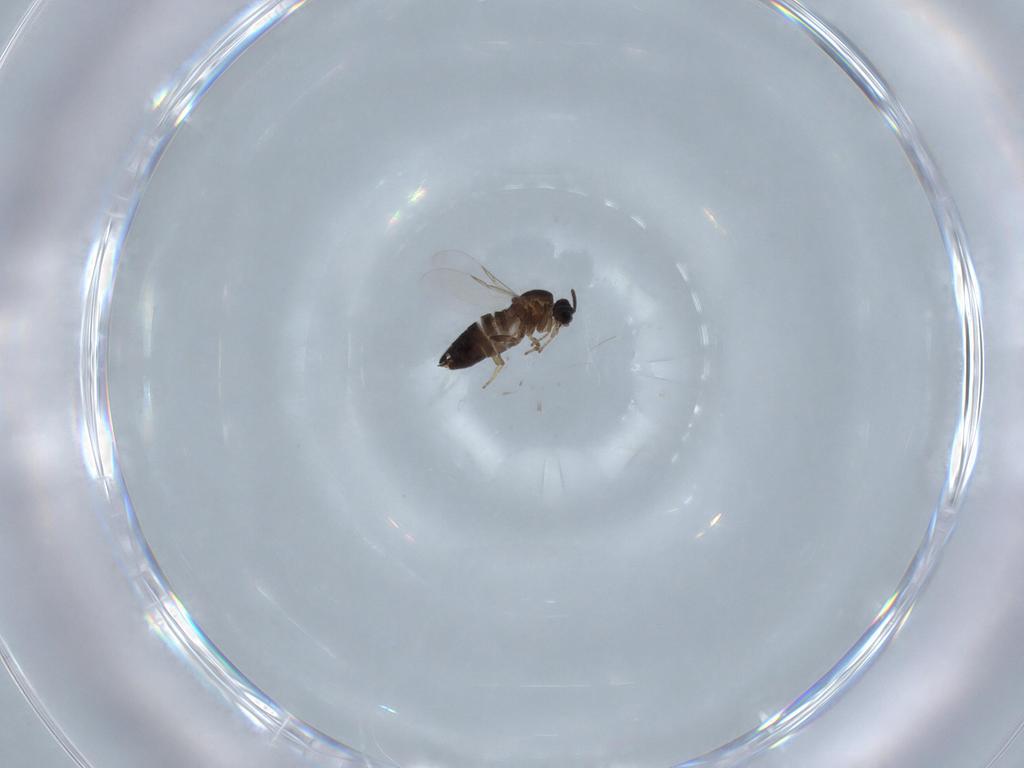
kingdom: Animalia
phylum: Arthropoda
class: Insecta
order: Diptera
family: Scatopsidae
